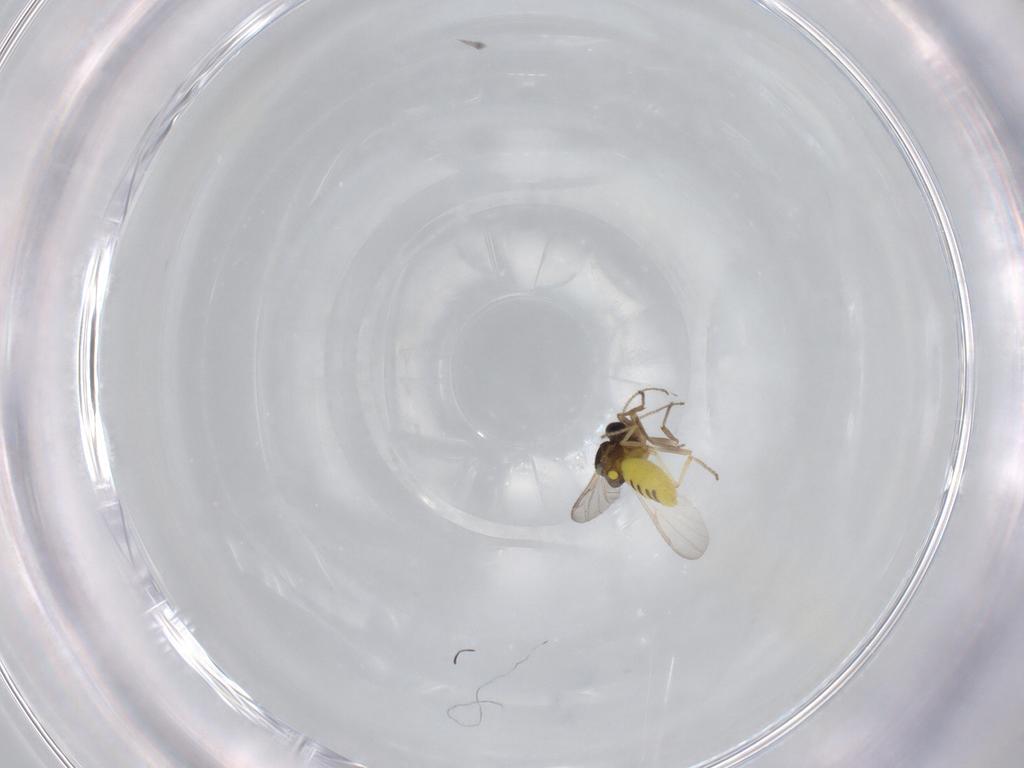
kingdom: Animalia
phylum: Arthropoda
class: Insecta
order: Diptera
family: Ceratopogonidae
